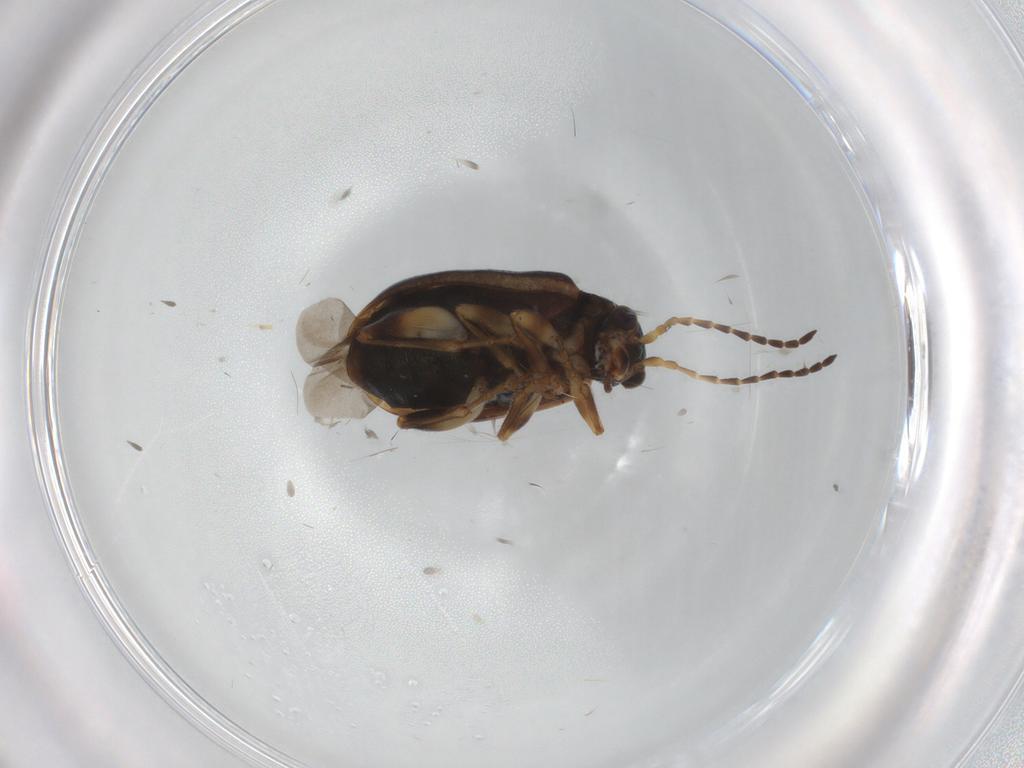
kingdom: Animalia
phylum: Arthropoda
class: Insecta
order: Coleoptera
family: Chrysomelidae
